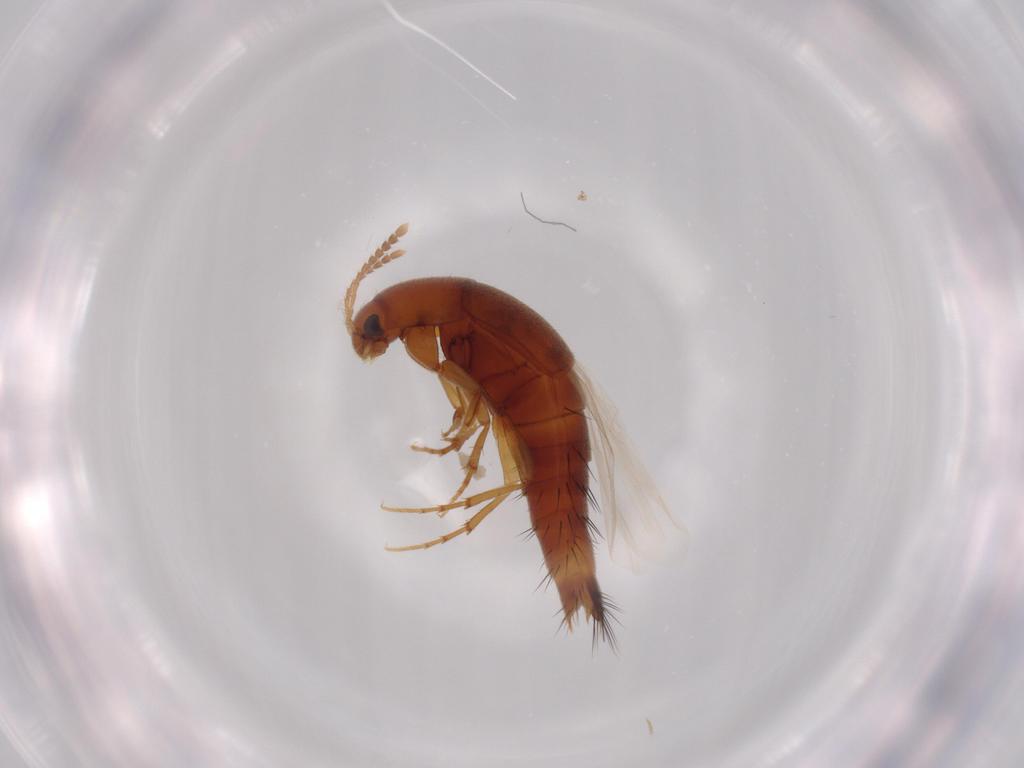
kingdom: Animalia
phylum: Arthropoda
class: Insecta
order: Coleoptera
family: Staphylinidae
